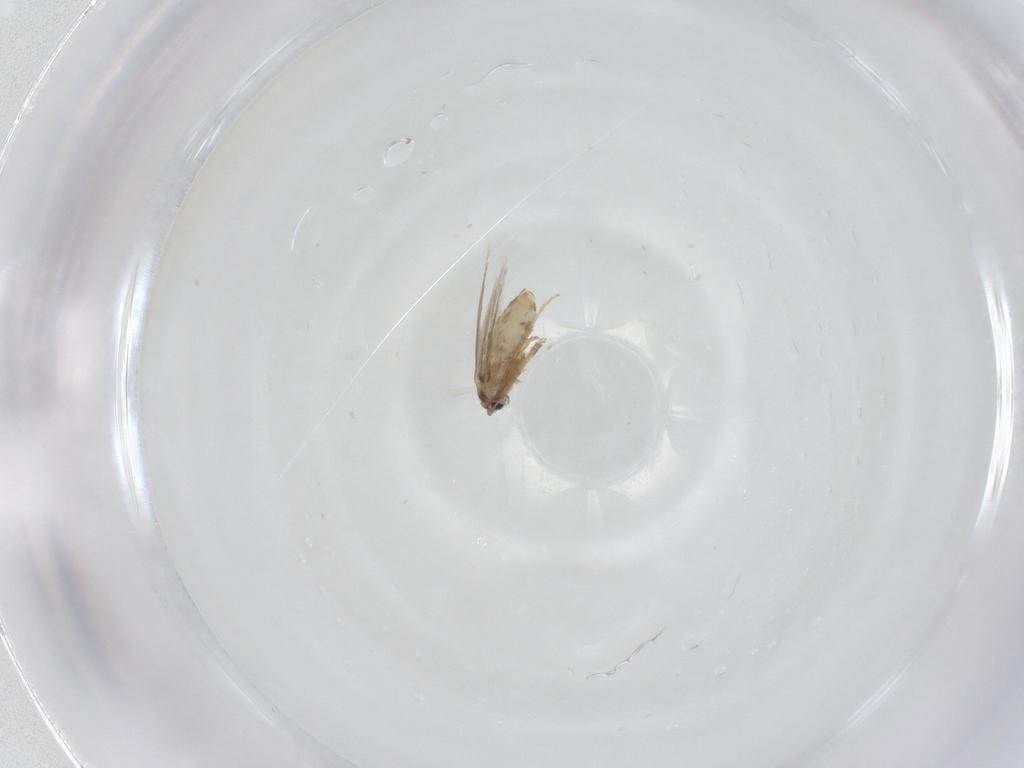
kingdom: Animalia
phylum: Arthropoda
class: Insecta
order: Lepidoptera
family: Nepticulidae
